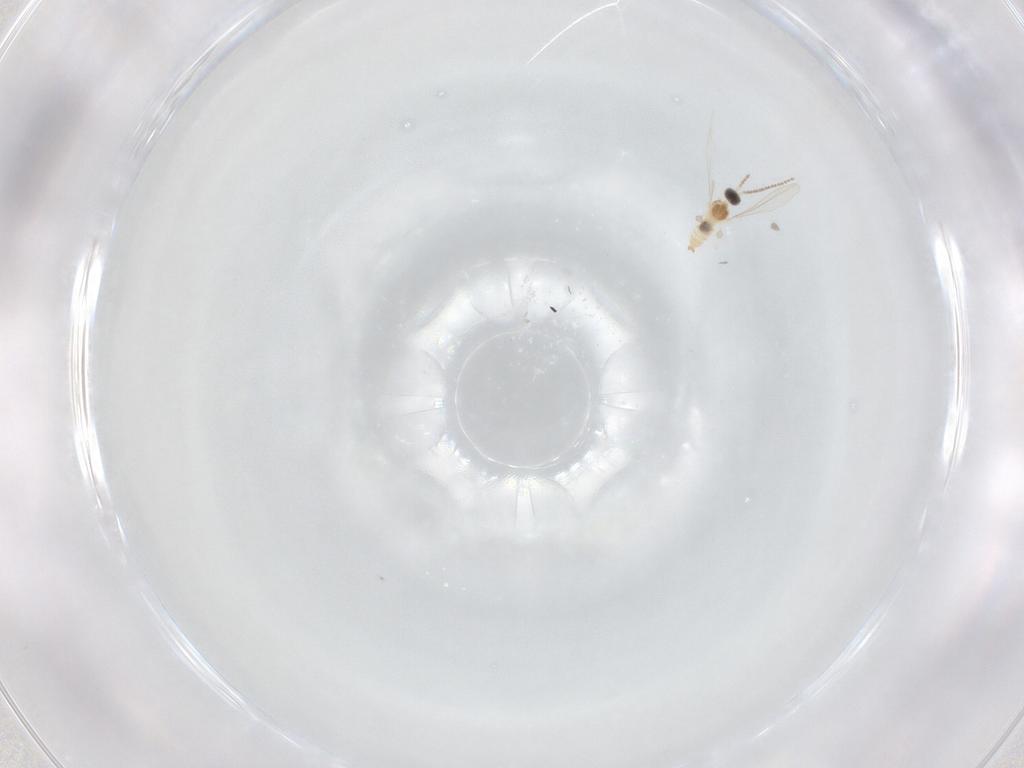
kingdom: Animalia
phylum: Arthropoda
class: Insecta
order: Diptera
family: Cecidomyiidae
